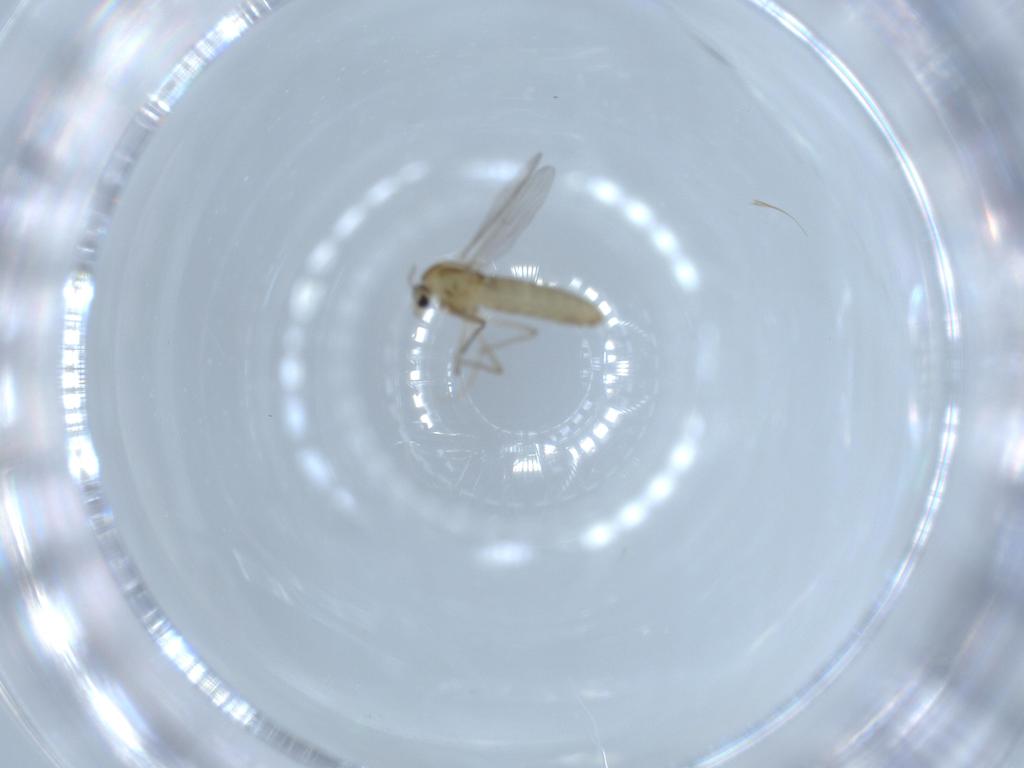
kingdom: Animalia
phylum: Arthropoda
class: Insecta
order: Diptera
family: Chironomidae
